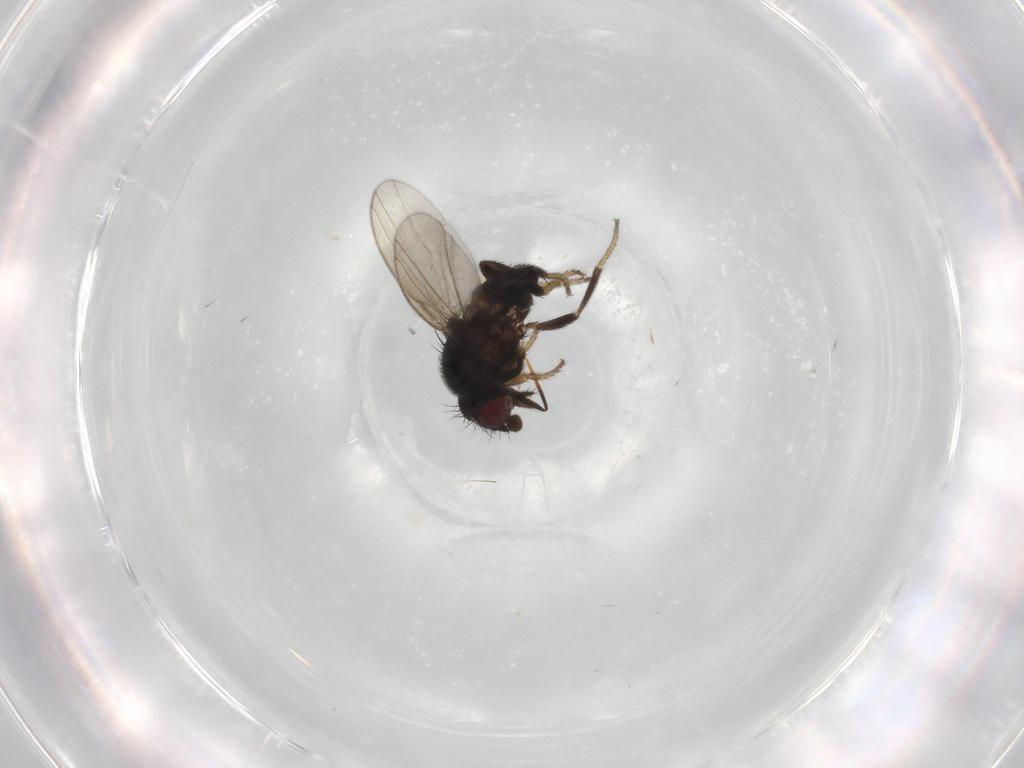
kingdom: Animalia
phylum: Arthropoda
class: Insecta
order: Diptera
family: Milichiidae
